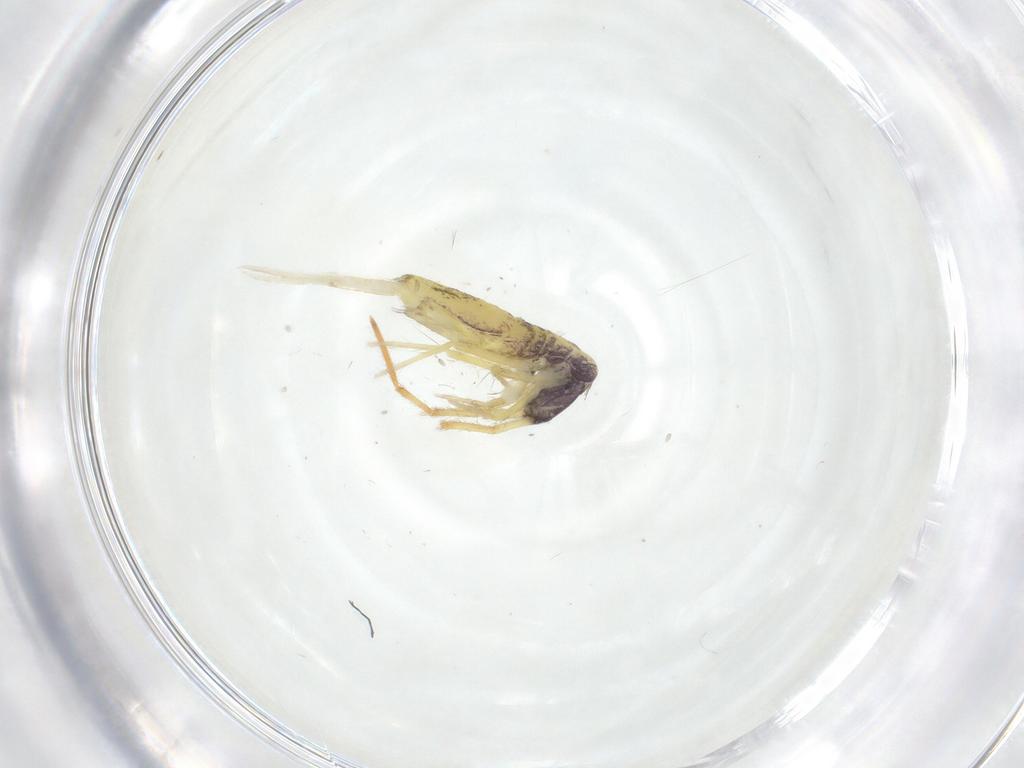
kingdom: Animalia
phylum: Arthropoda
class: Collembola
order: Entomobryomorpha
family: Entomobryidae
